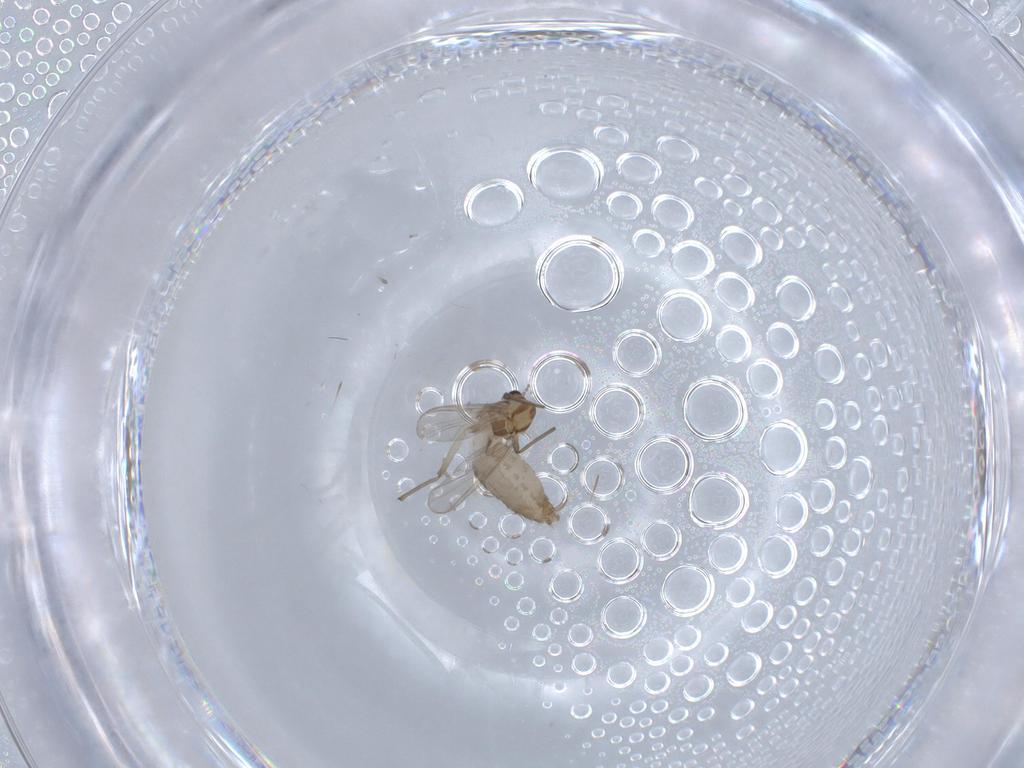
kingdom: Animalia
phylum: Arthropoda
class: Insecta
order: Diptera
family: Chironomidae
